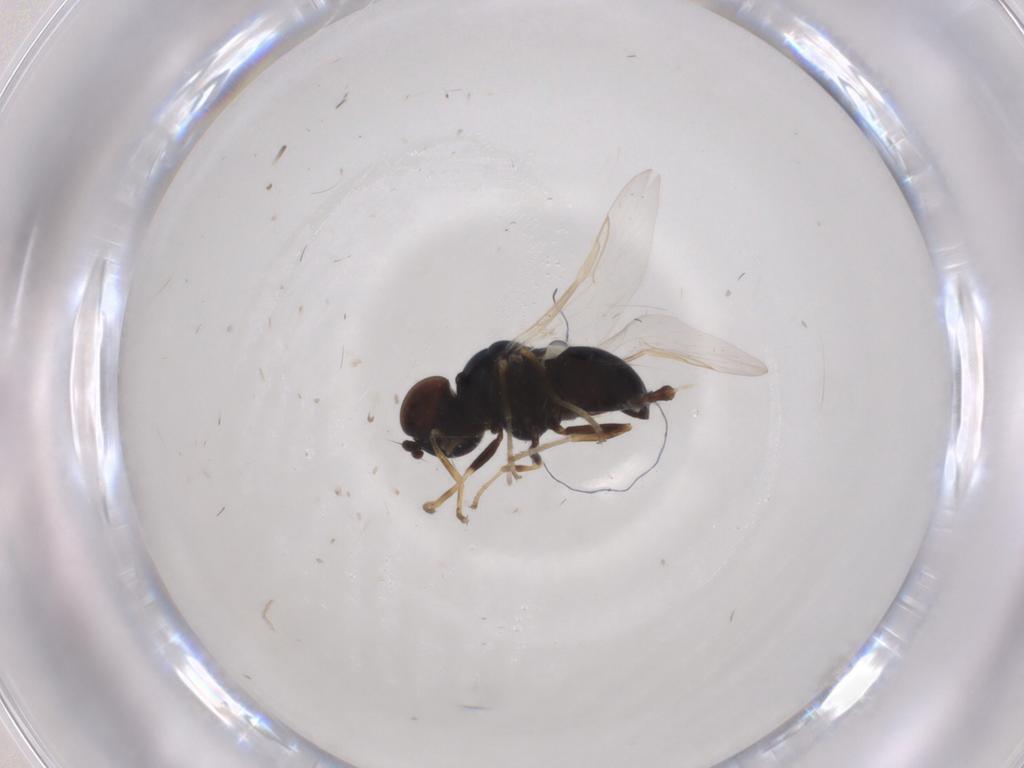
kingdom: Animalia
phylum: Arthropoda
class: Insecta
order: Diptera
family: Stratiomyidae
